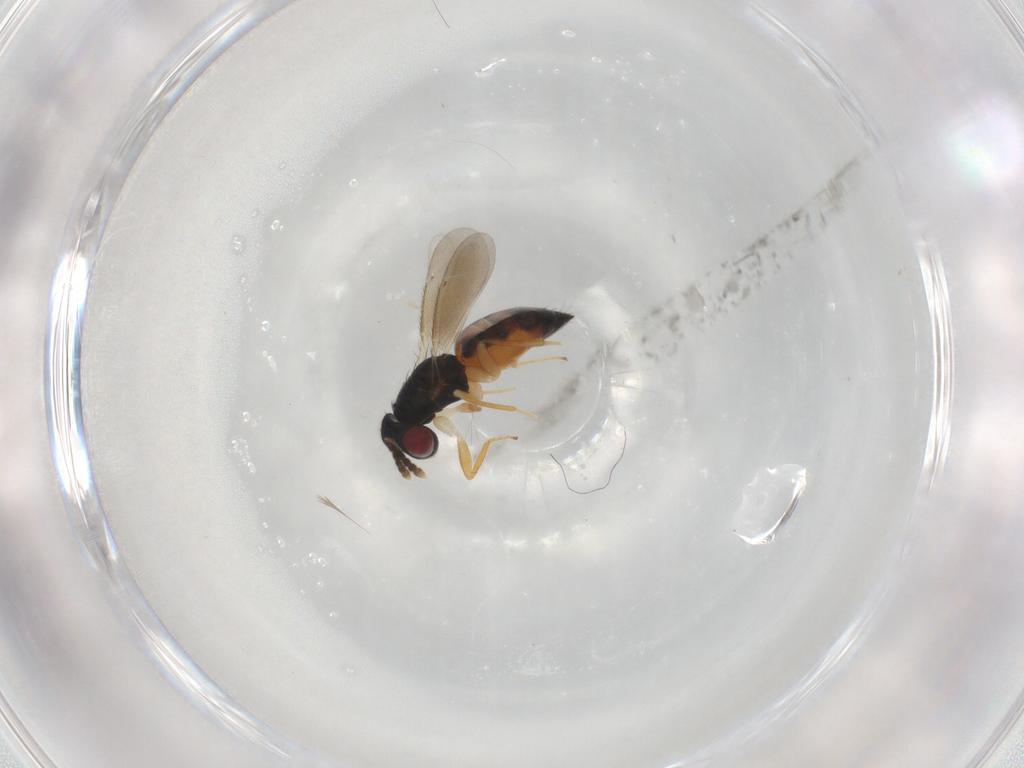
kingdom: Animalia
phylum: Arthropoda
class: Insecta
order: Hymenoptera
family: Eulophidae
